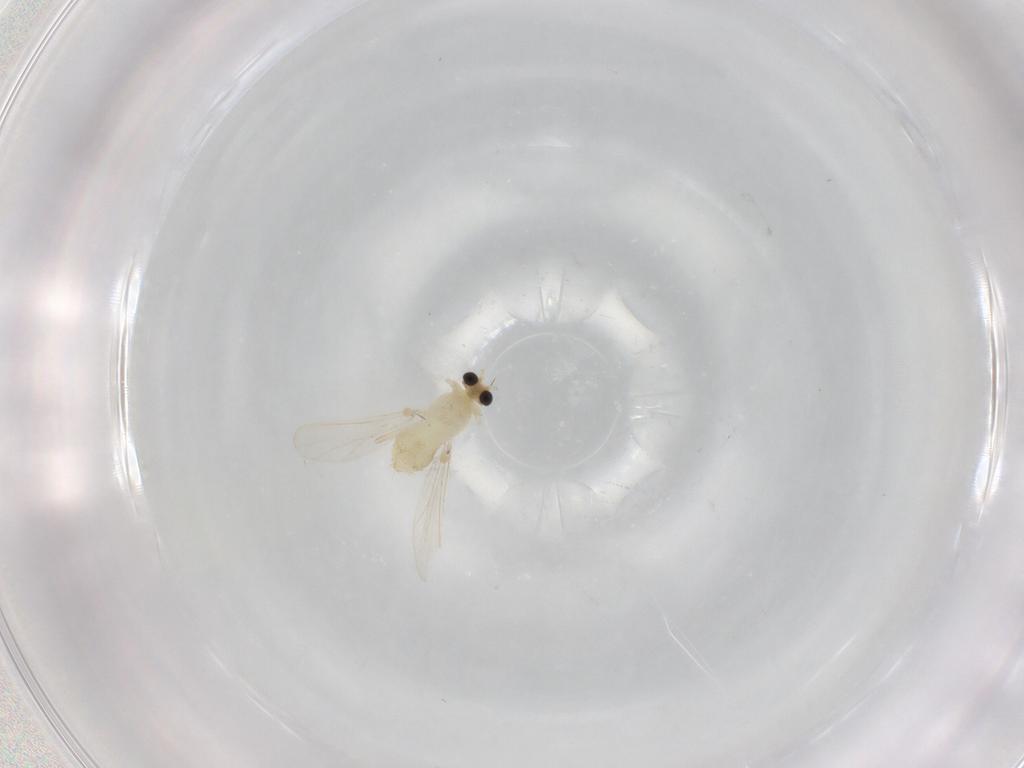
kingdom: Animalia
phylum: Arthropoda
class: Insecta
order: Diptera
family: Chironomidae
